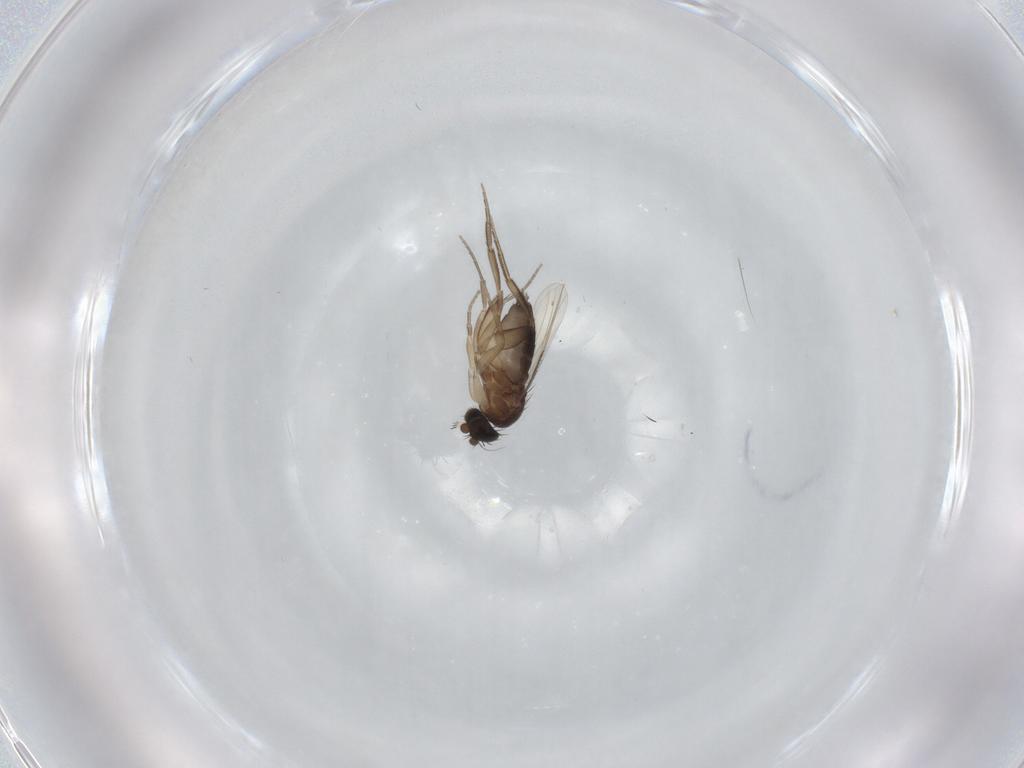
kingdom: Animalia
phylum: Arthropoda
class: Insecta
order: Diptera
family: Phoridae
